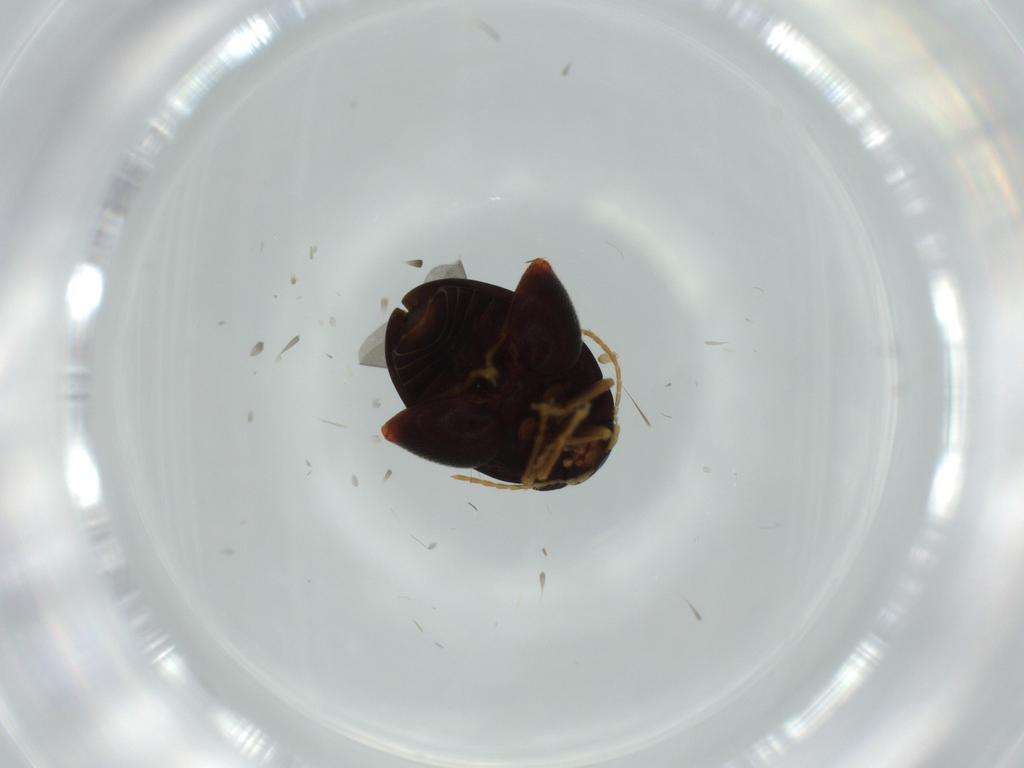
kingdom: Animalia
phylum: Arthropoda
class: Insecta
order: Coleoptera
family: Chrysomelidae
